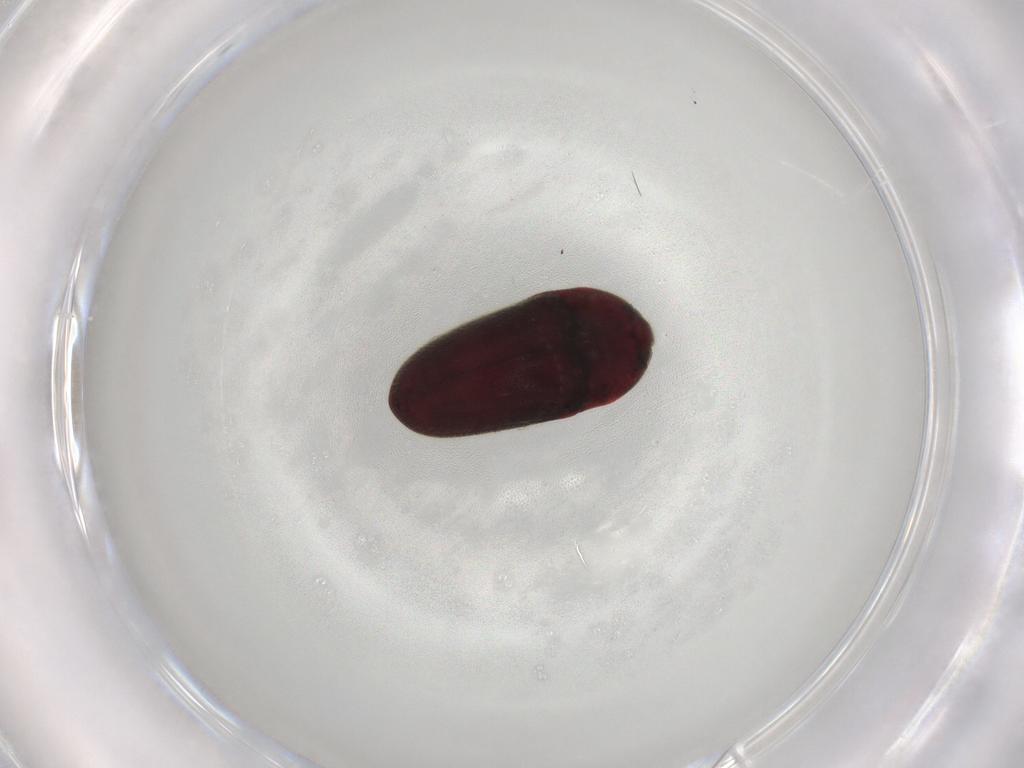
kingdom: Animalia
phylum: Arthropoda
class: Insecta
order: Coleoptera
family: Throscidae
